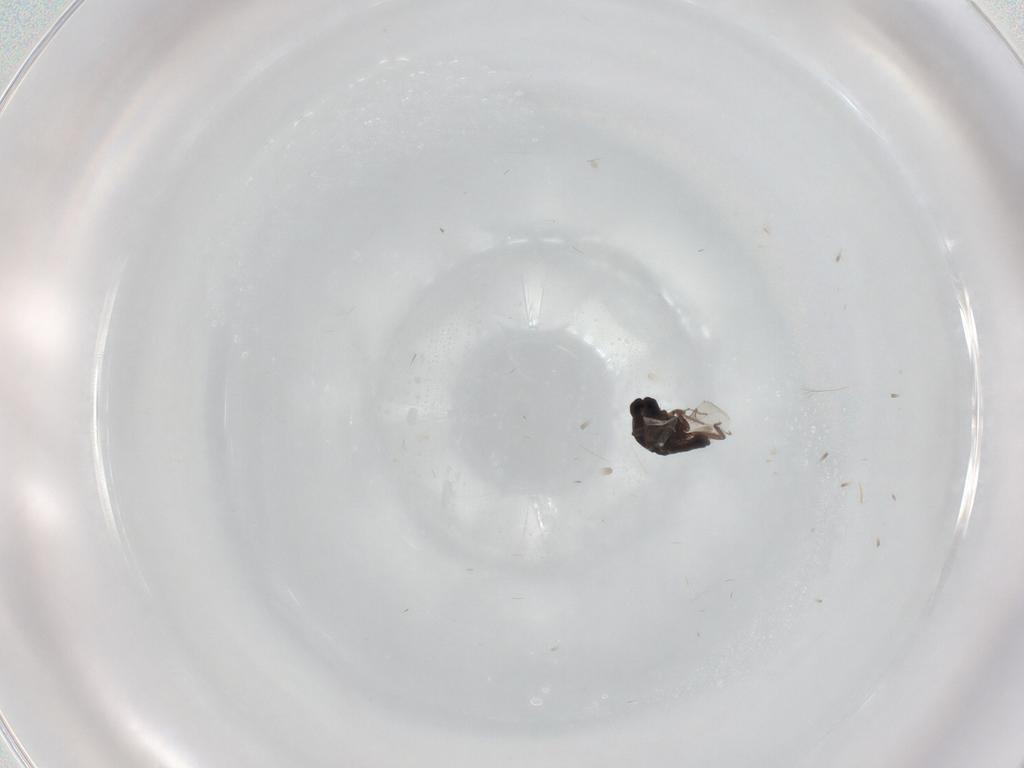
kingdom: Animalia
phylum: Arthropoda
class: Insecta
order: Diptera
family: Ceratopogonidae
